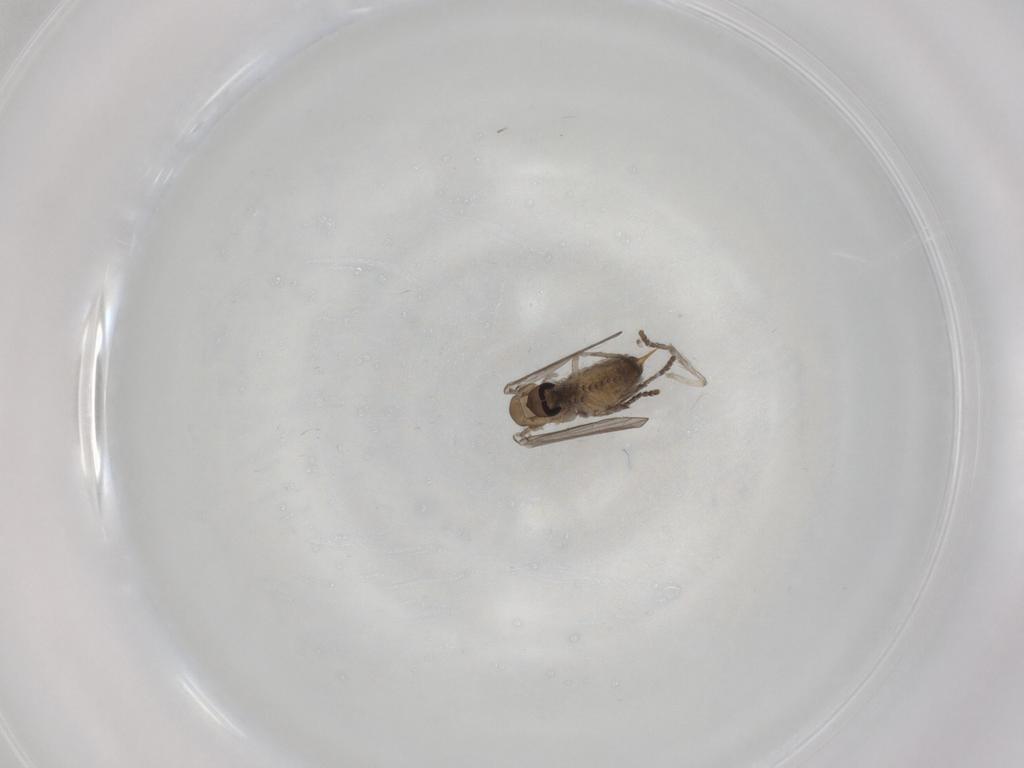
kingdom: Animalia
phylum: Arthropoda
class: Insecta
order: Diptera
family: Psychodidae
